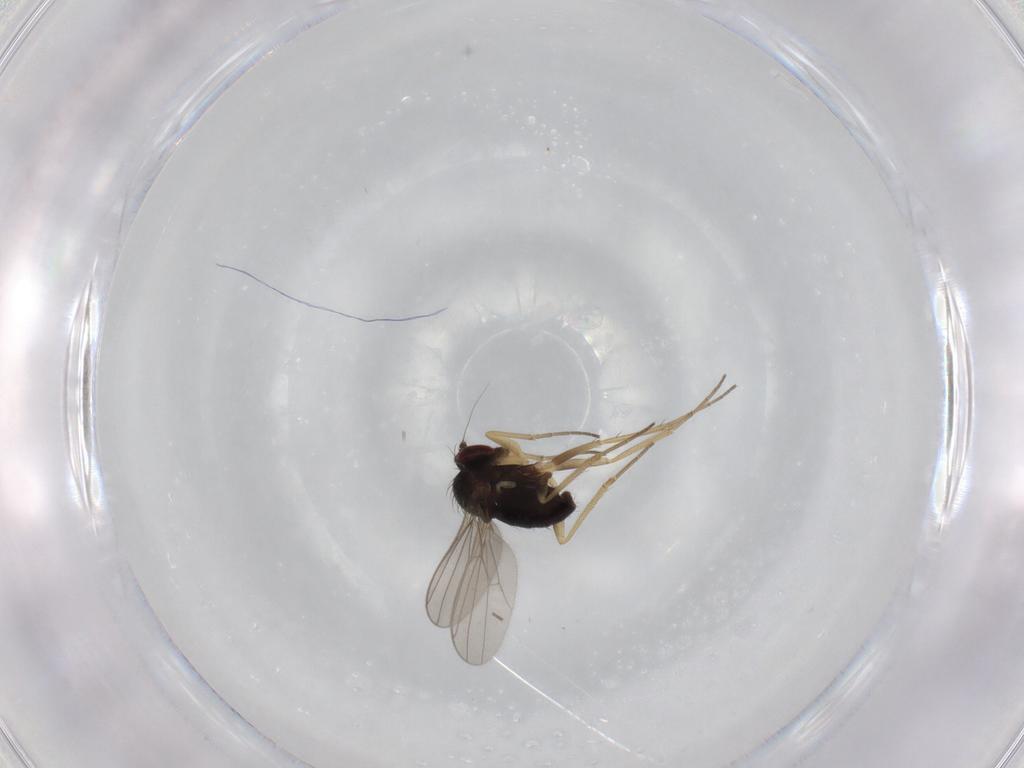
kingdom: Animalia
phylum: Arthropoda
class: Insecta
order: Diptera
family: Dolichopodidae
